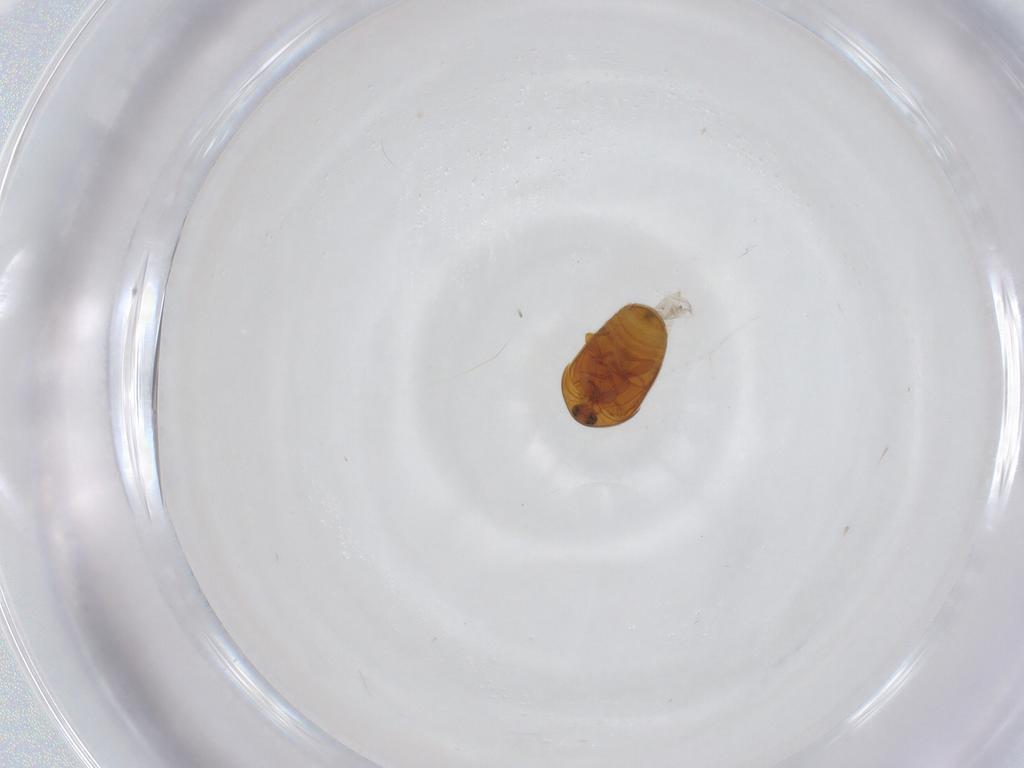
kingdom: Animalia
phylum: Arthropoda
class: Insecta
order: Coleoptera
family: Corylophidae
